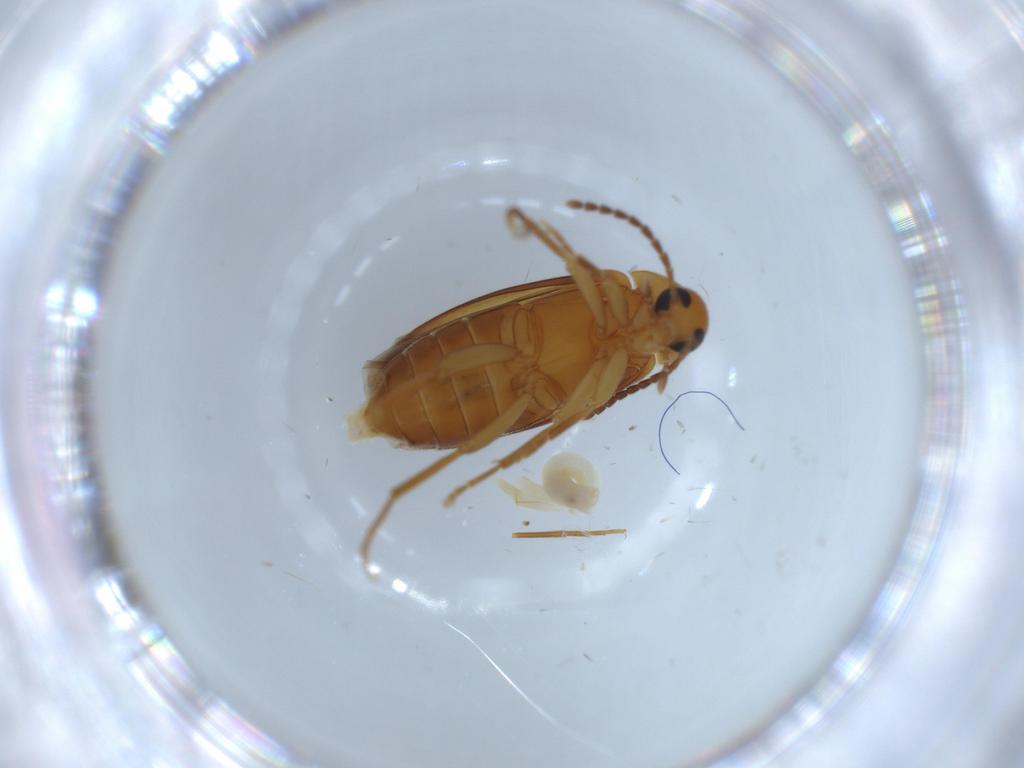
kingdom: Animalia
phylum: Arthropoda
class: Insecta
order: Coleoptera
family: Scraptiidae
